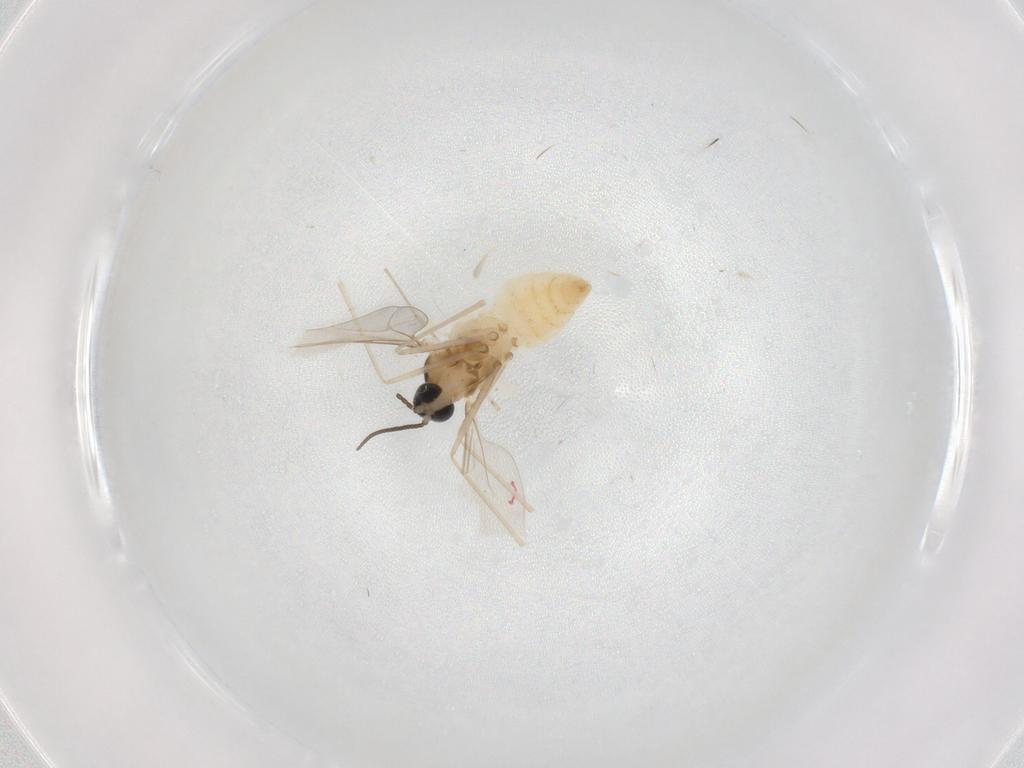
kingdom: Animalia
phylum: Arthropoda
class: Insecta
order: Diptera
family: Cecidomyiidae
